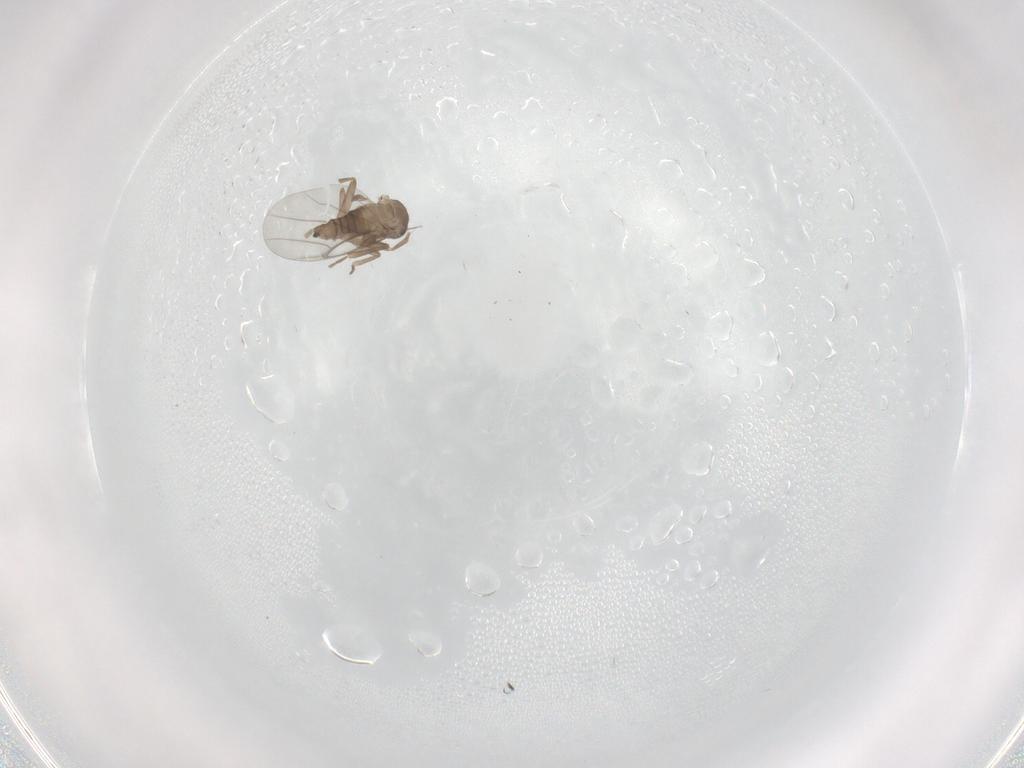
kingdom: Animalia
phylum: Arthropoda
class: Insecta
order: Diptera
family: Cecidomyiidae
